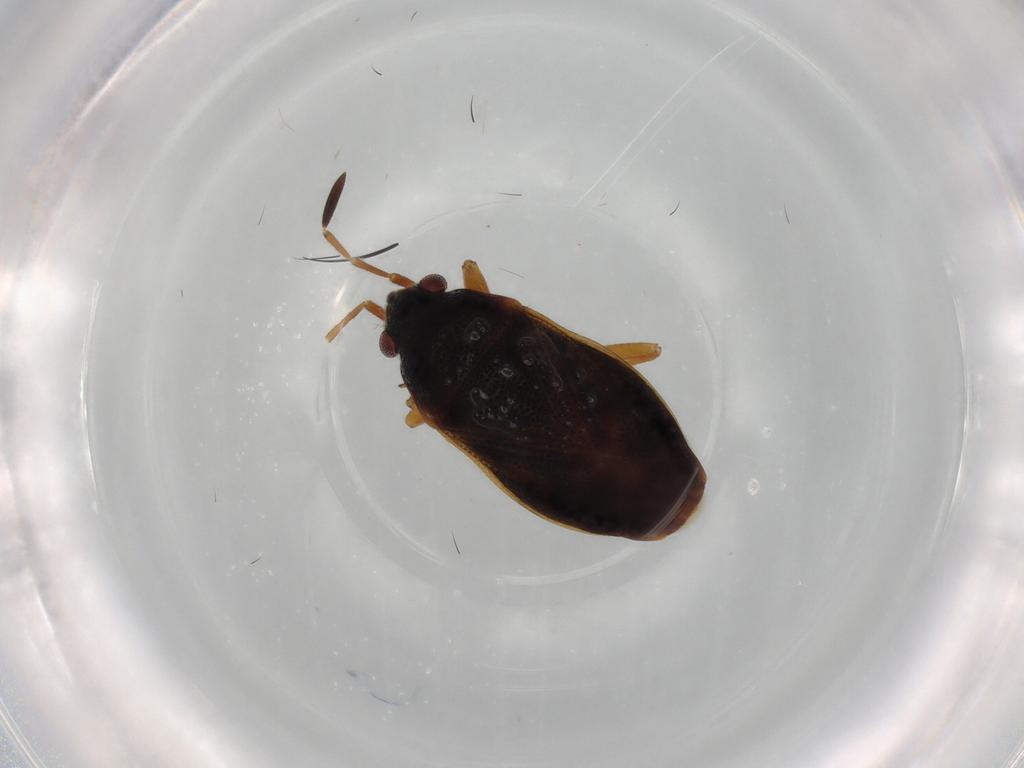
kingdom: Animalia
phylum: Arthropoda
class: Insecta
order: Hemiptera
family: Rhyparochromidae
